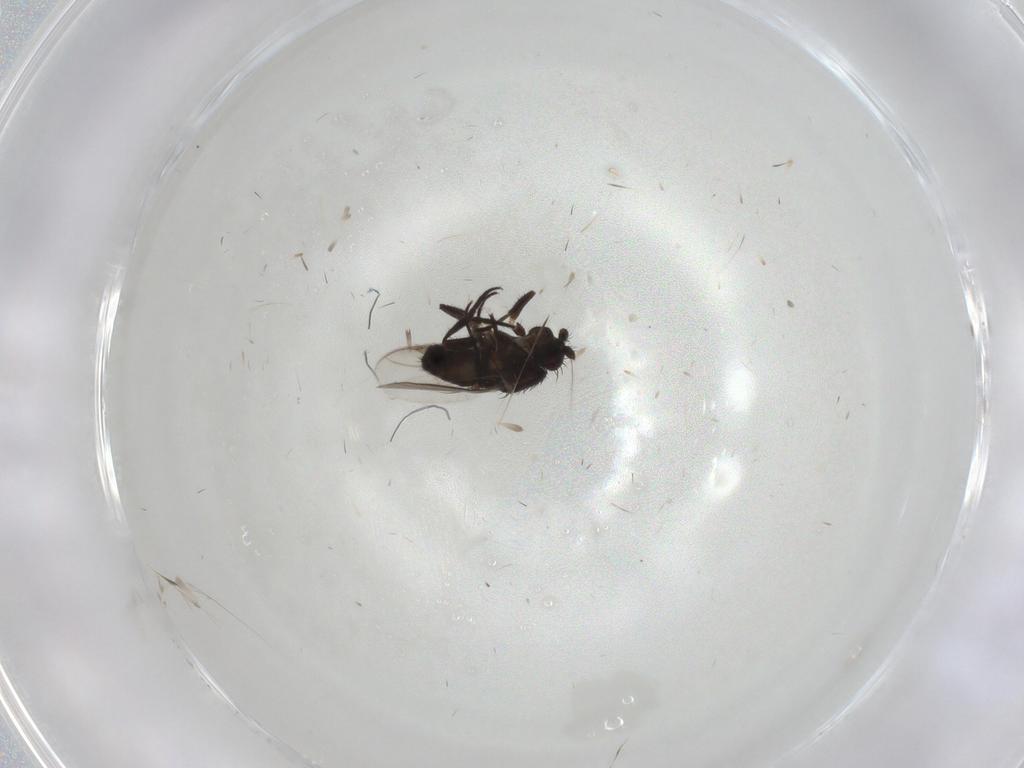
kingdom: Animalia
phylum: Arthropoda
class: Insecta
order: Diptera
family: Sphaeroceridae
